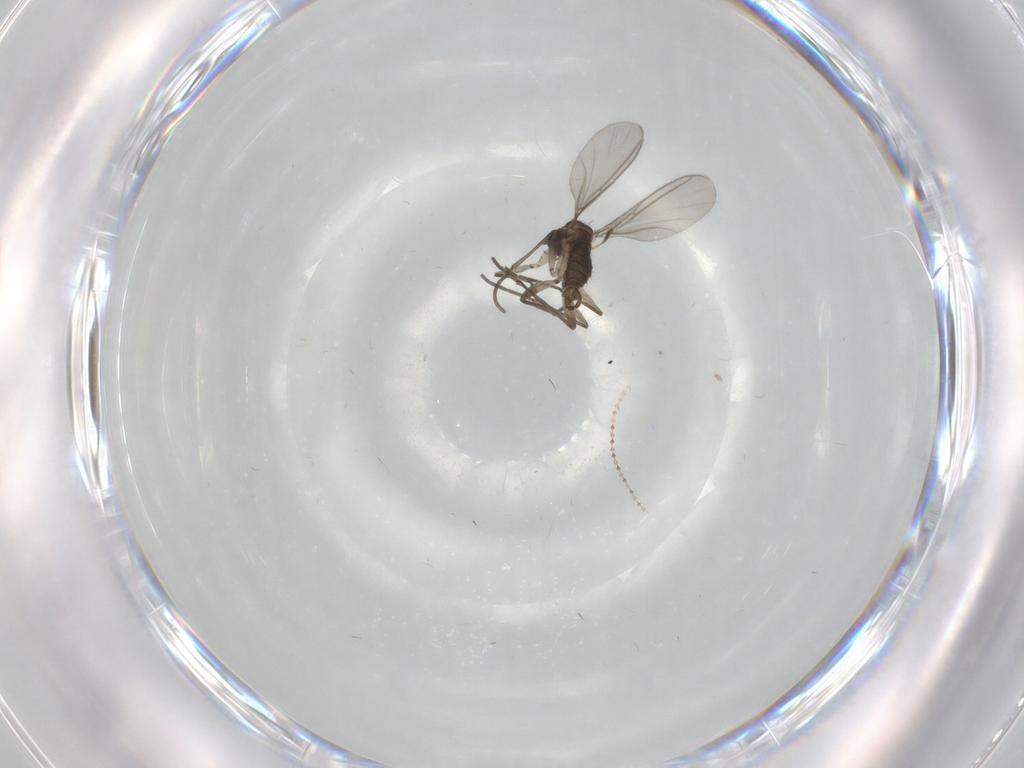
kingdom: Animalia
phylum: Arthropoda
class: Insecta
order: Diptera
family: Sciaridae
